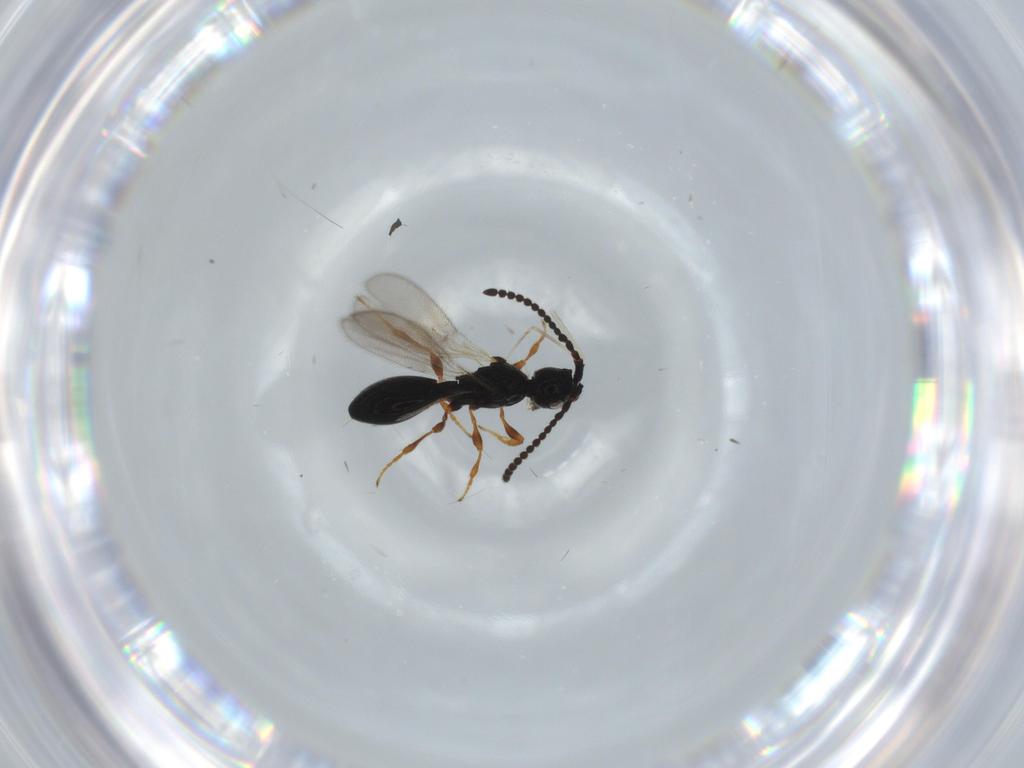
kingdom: Animalia
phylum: Arthropoda
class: Insecta
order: Hymenoptera
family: Diapriidae
